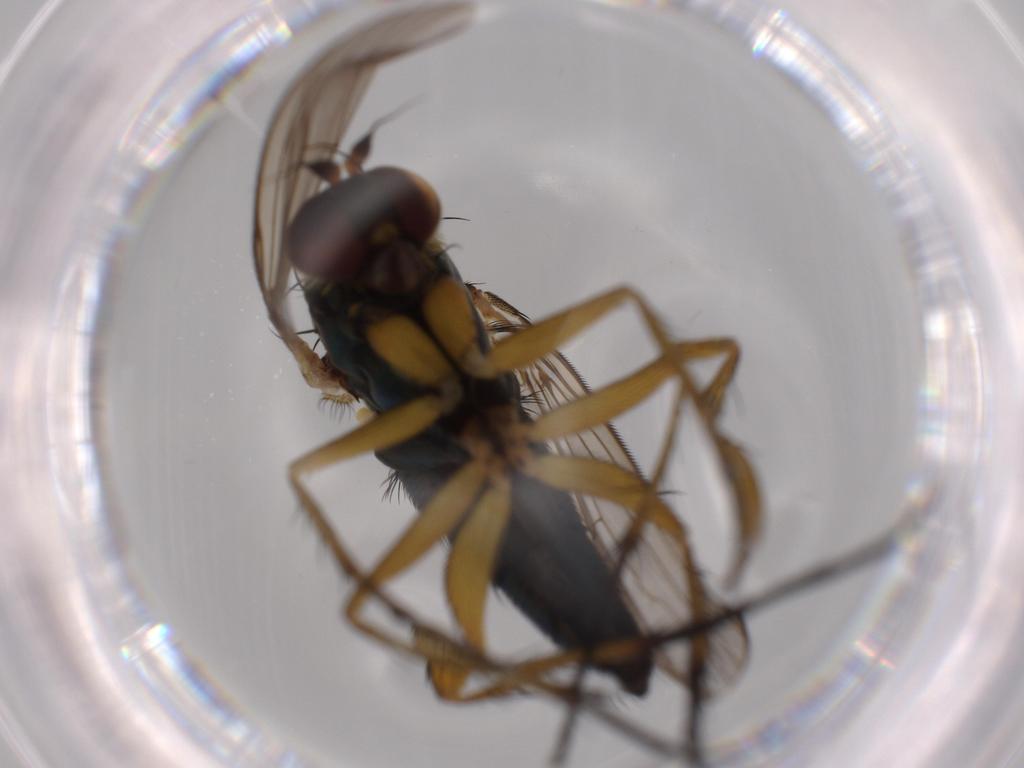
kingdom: Animalia
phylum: Arthropoda
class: Insecta
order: Diptera
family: Dolichopodidae
